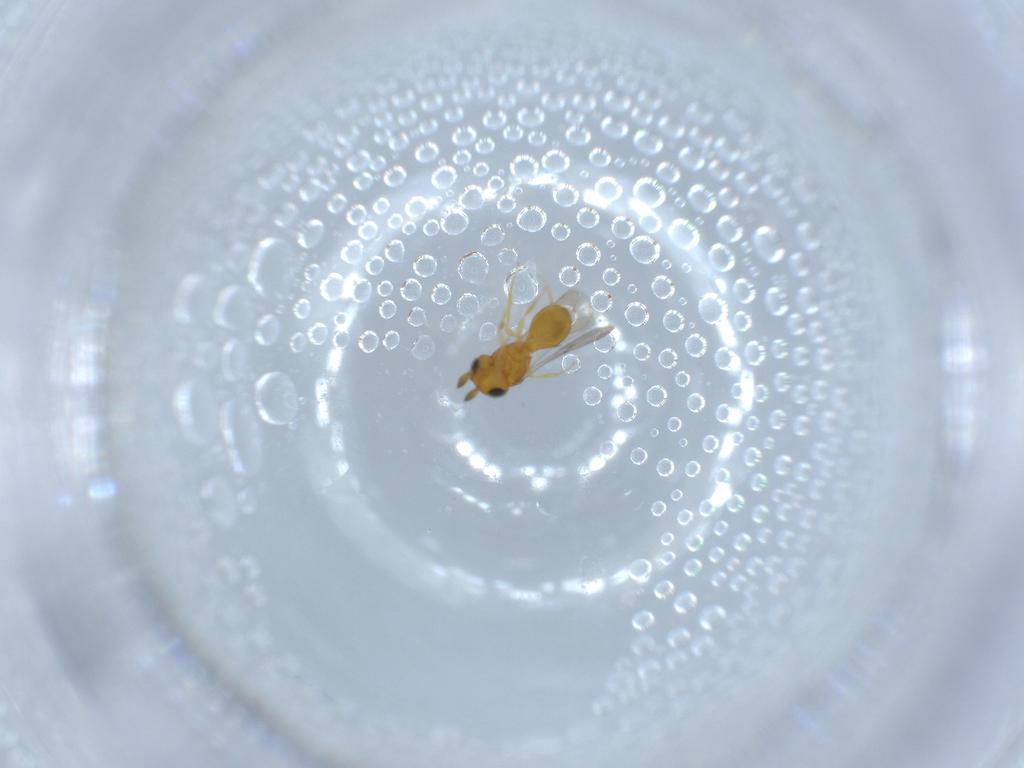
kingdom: Animalia
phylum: Arthropoda
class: Insecta
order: Hymenoptera
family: Scelionidae
